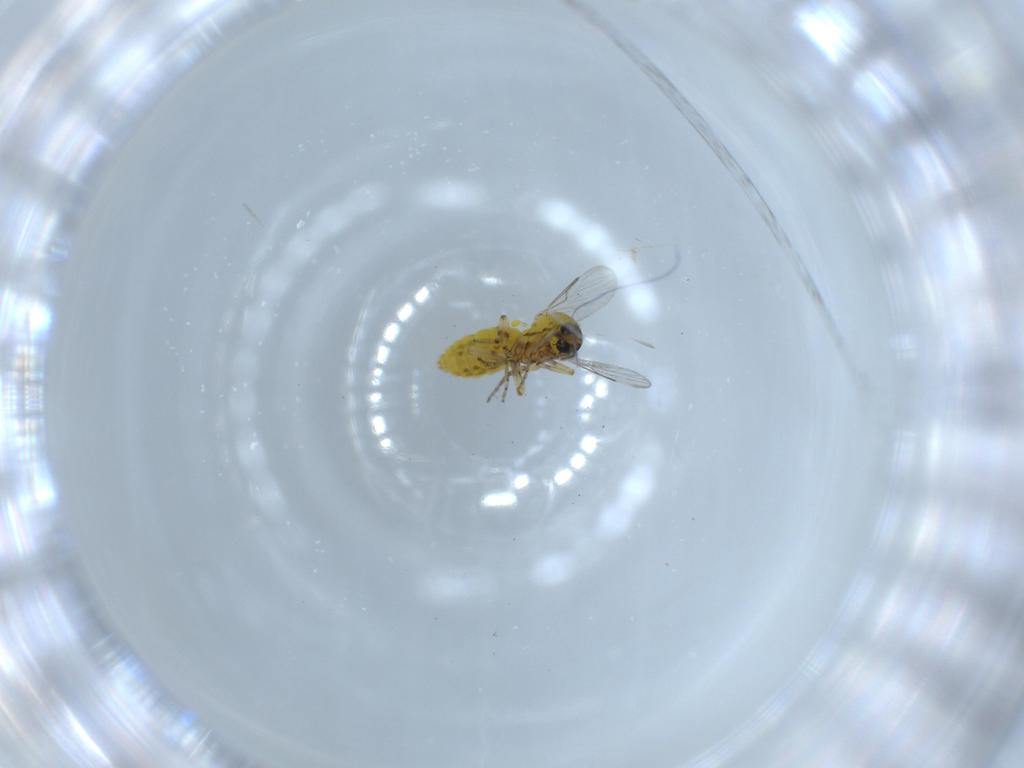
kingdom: Animalia
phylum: Arthropoda
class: Insecta
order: Diptera
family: Ceratopogonidae
